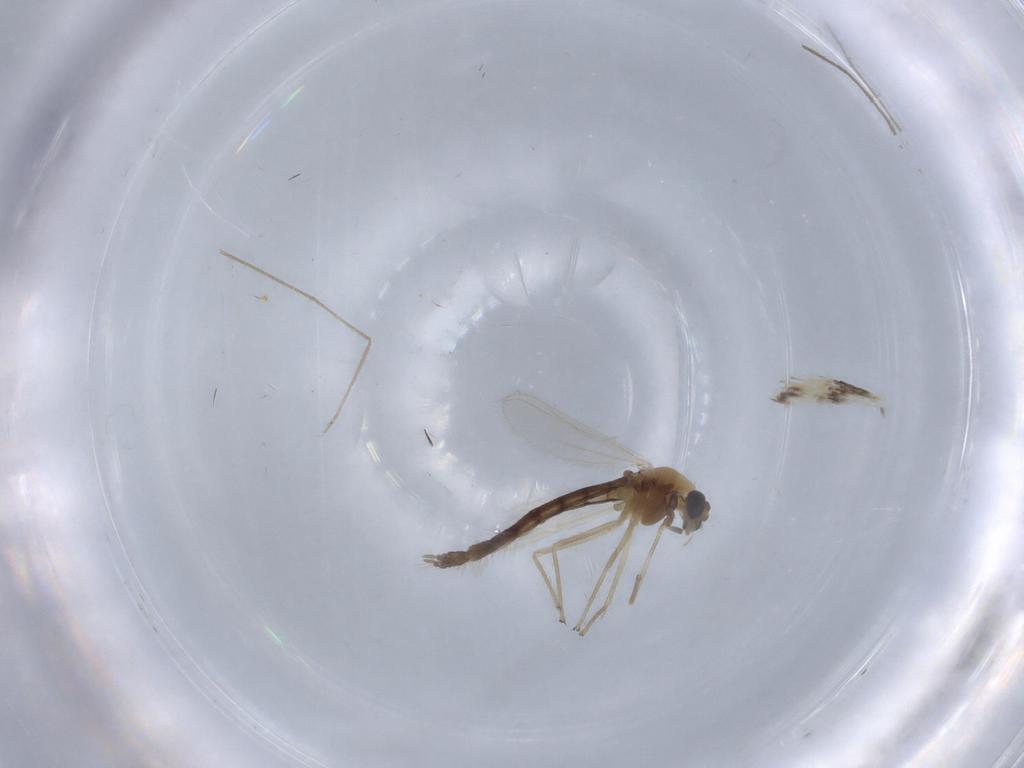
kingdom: Animalia
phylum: Arthropoda
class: Insecta
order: Diptera
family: Chironomidae
